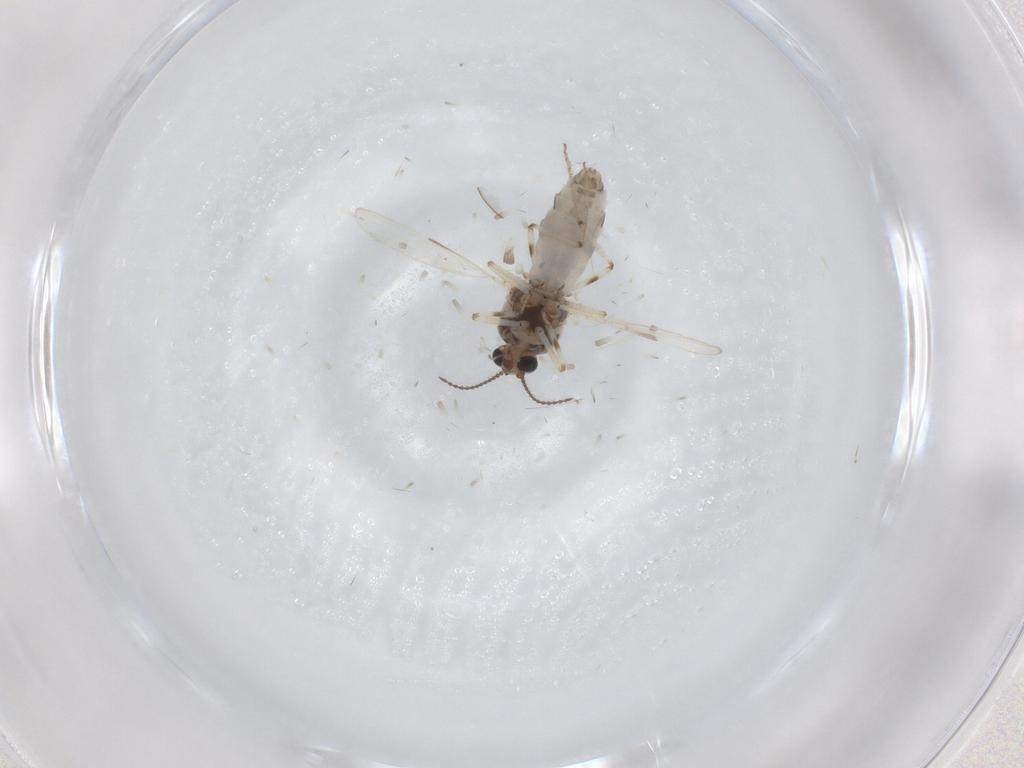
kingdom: Animalia
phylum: Arthropoda
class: Insecta
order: Diptera
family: Ceratopogonidae
